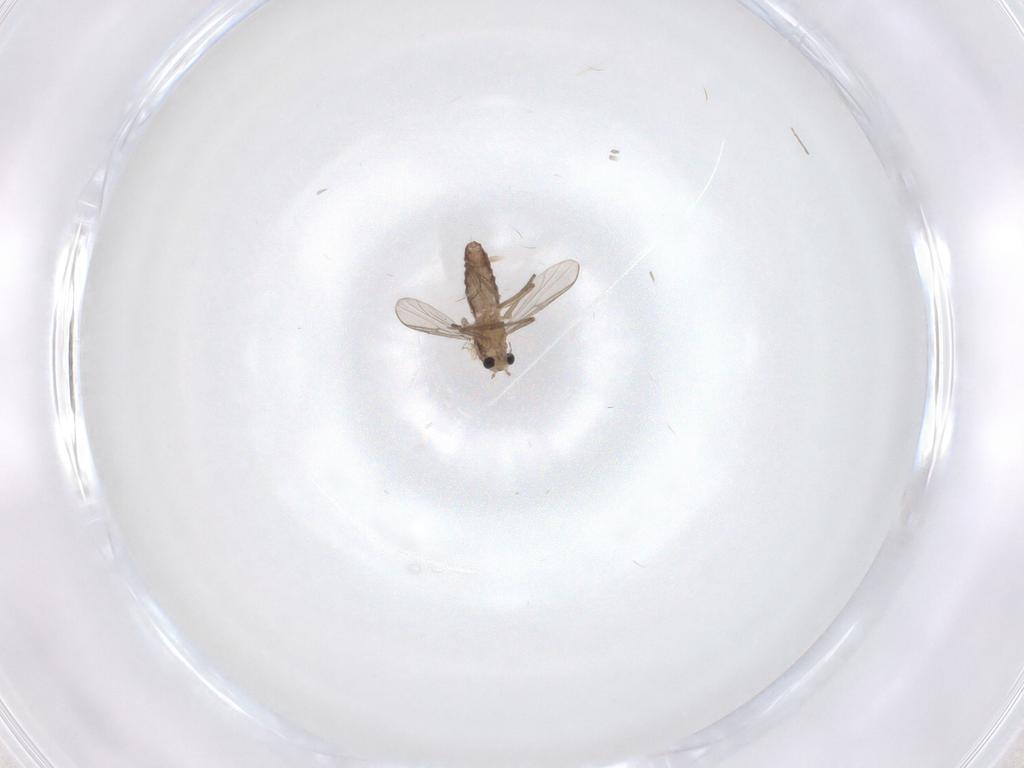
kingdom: Animalia
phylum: Arthropoda
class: Insecta
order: Diptera
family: Chironomidae
